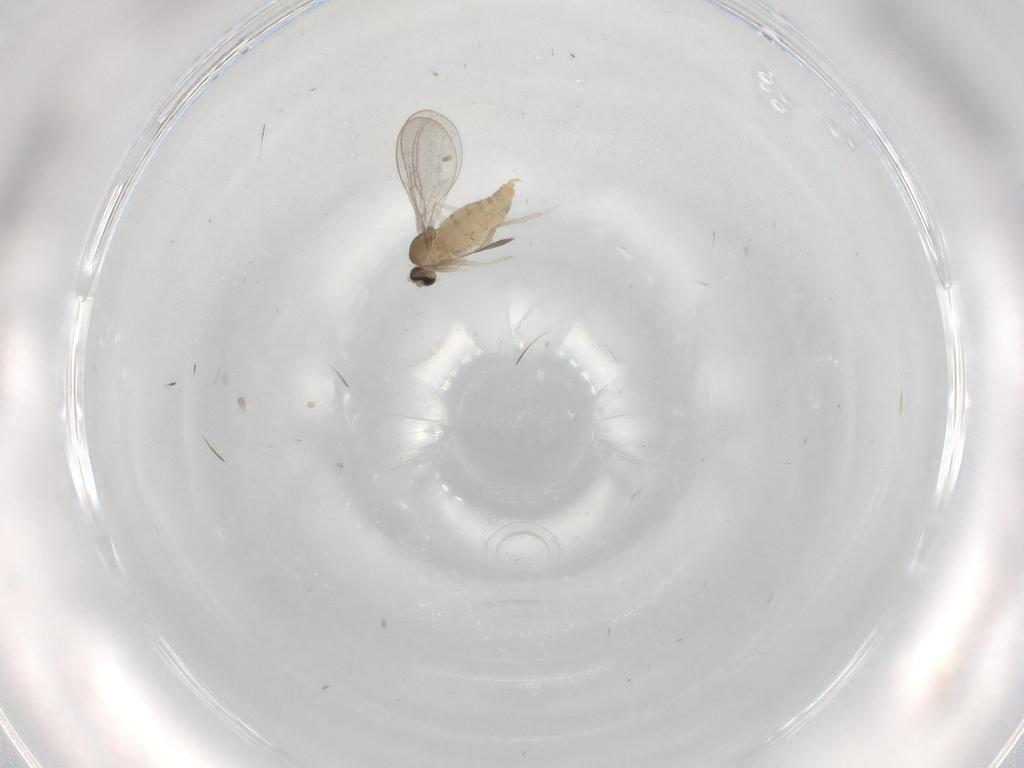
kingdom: Animalia
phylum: Arthropoda
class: Insecta
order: Diptera
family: Cecidomyiidae
